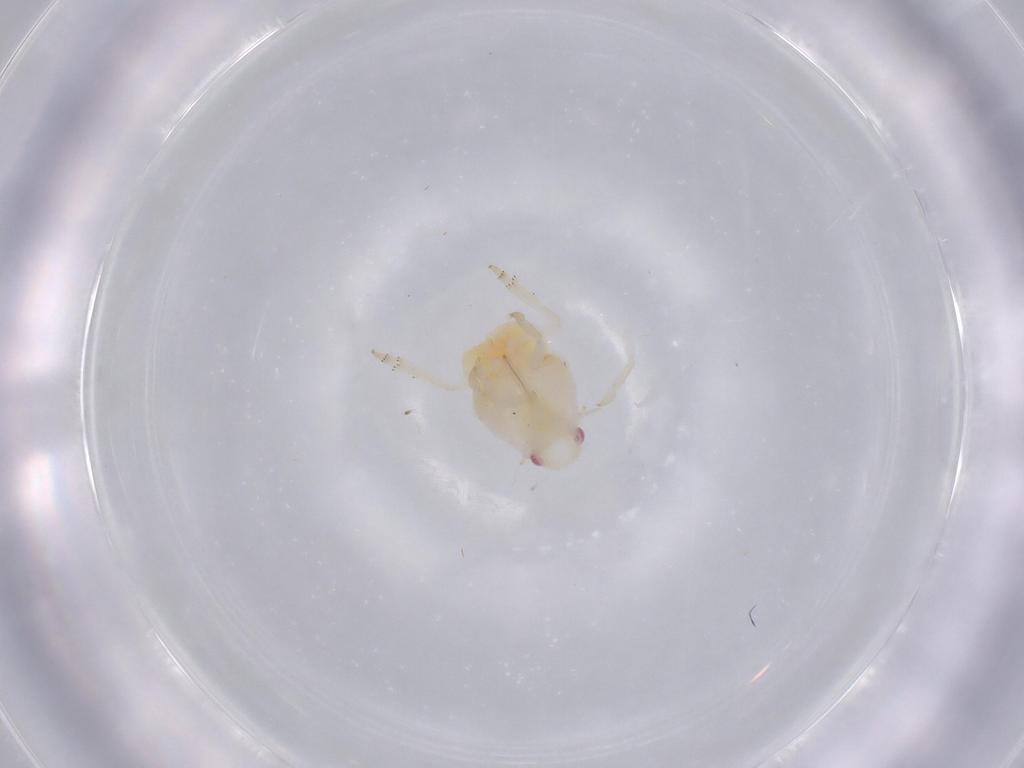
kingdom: Animalia
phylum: Arthropoda
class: Insecta
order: Hemiptera
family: Flatidae
